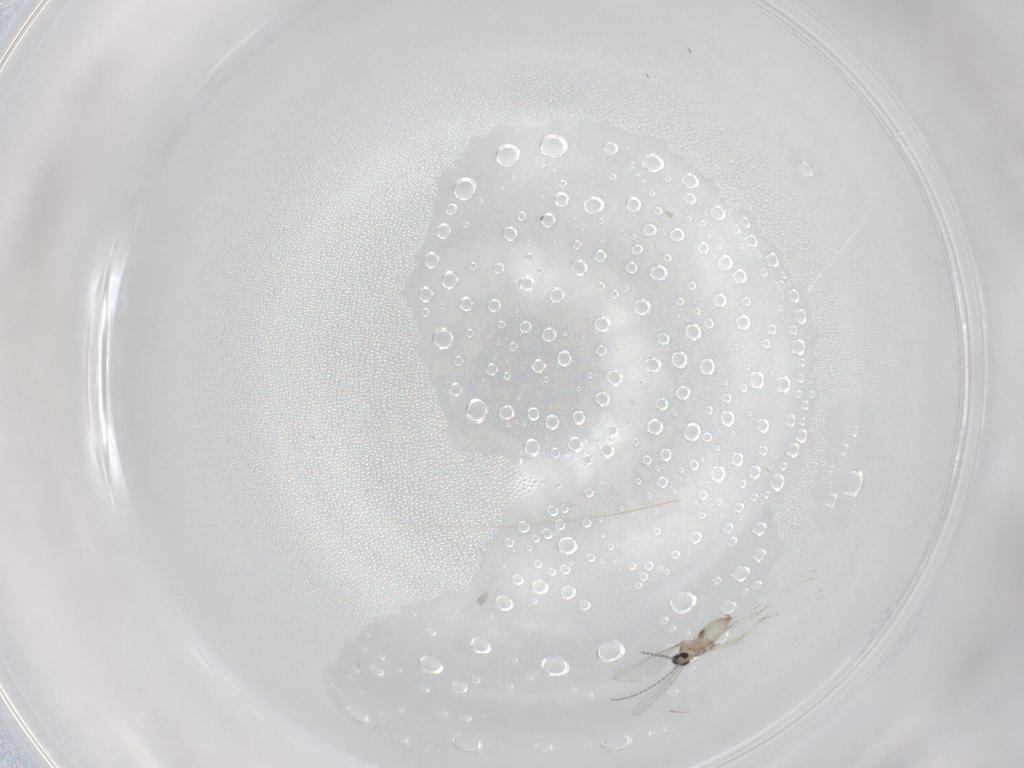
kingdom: Animalia
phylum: Arthropoda
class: Insecta
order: Diptera
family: Cecidomyiidae
